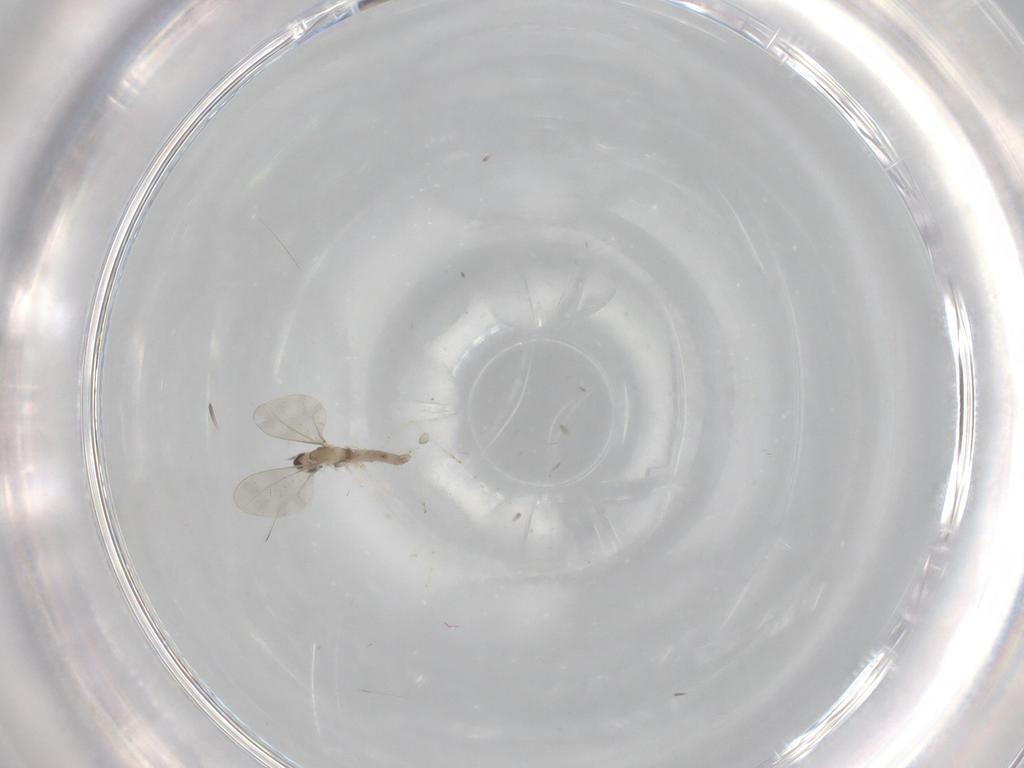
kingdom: Animalia
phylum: Arthropoda
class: Insecta
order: Diptera
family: Cecidomyiidae
